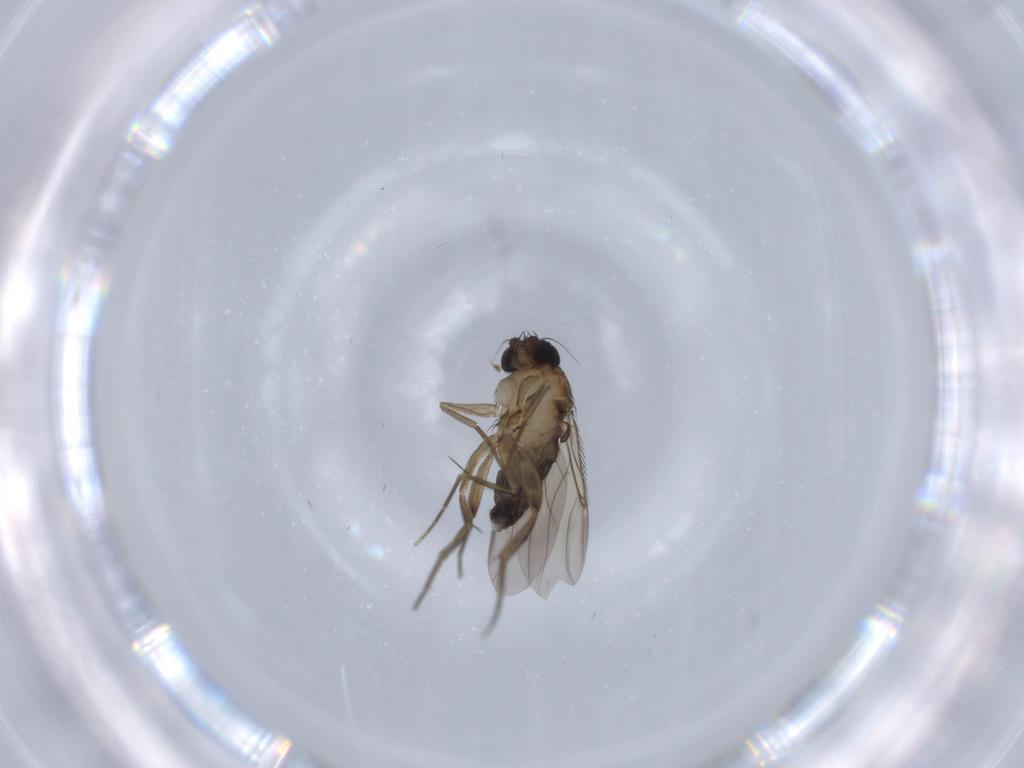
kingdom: Animalia
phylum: Arthropoda
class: Insecta
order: Diptera
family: Phoridae
